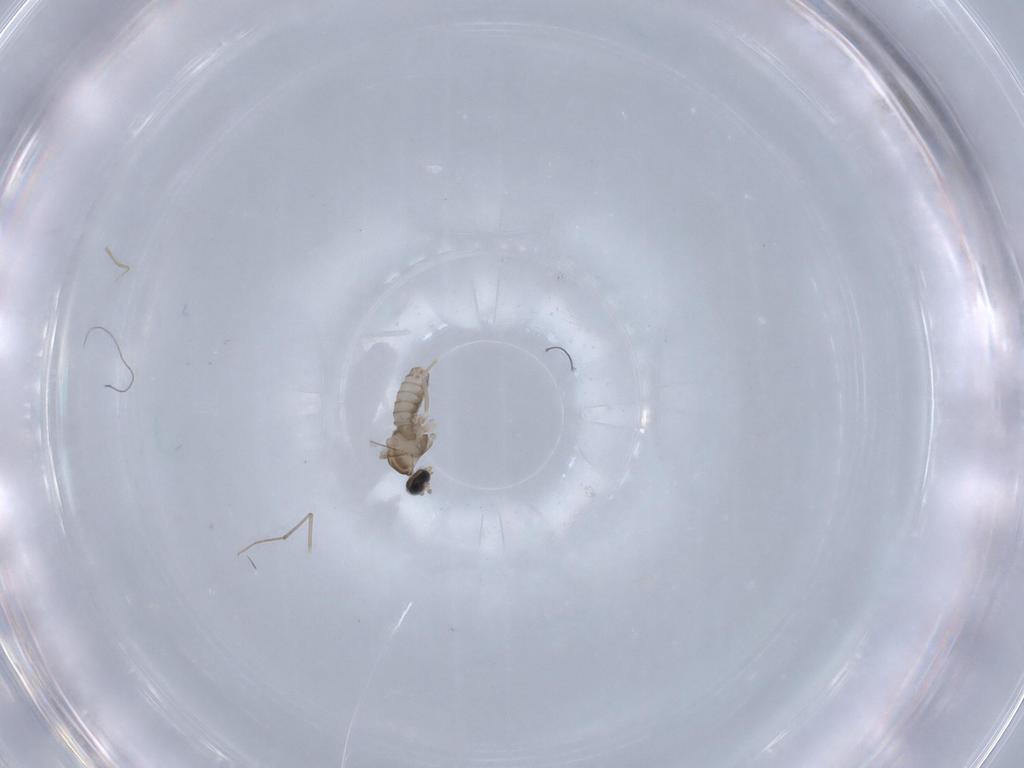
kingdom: Animalia
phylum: Arthropoda
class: Insecta
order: Diptera
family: Cecidomyiidae
